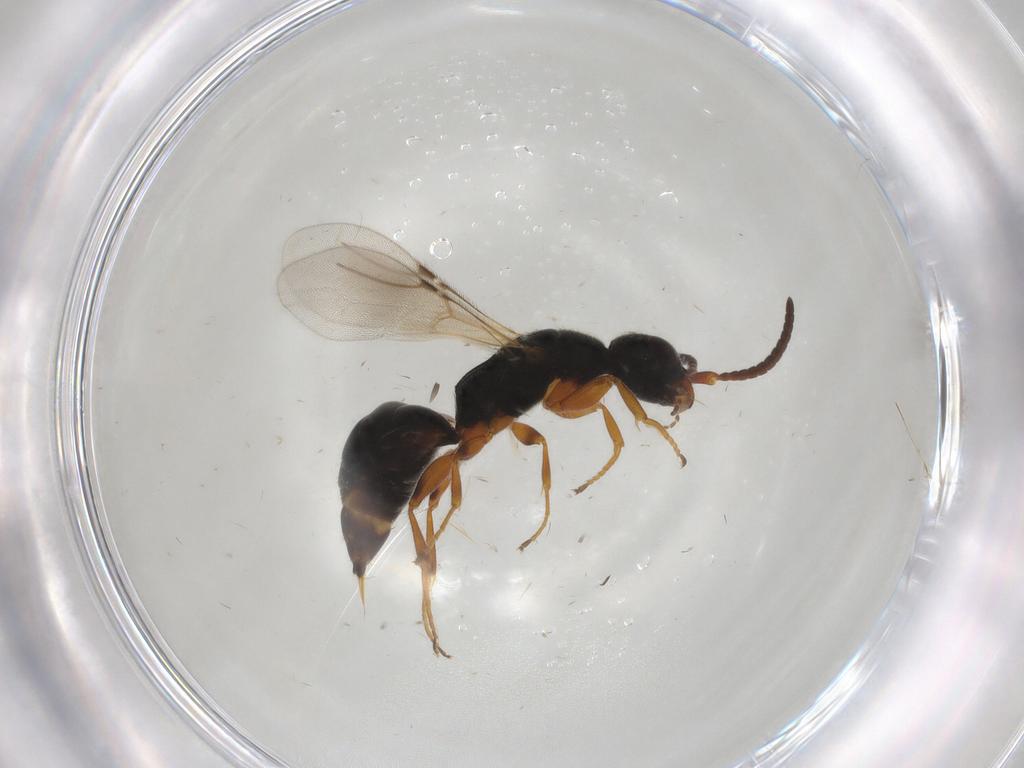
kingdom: Animalia
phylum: Arthropoda
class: Insecta
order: Hymenoptera
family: Bethylidae
